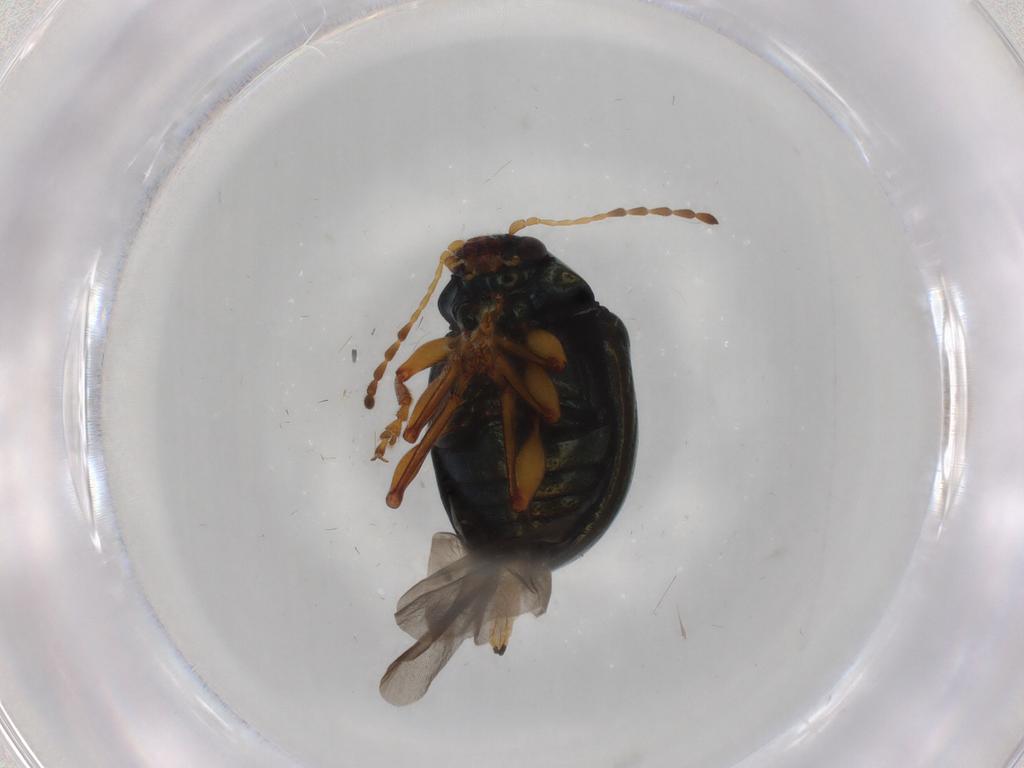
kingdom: Animalia
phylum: Arthropoda
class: Insecta
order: Coleoptera
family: Chrysomelidae
